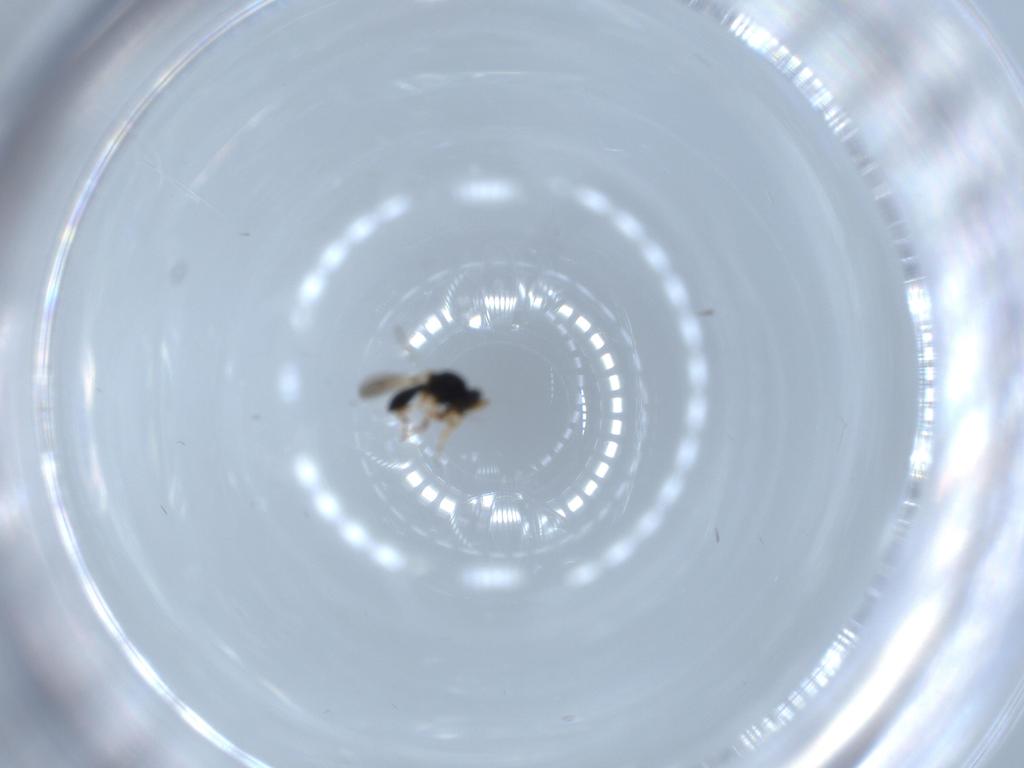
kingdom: Animalia
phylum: Arthropoda
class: Insecta
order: Hymenoptera
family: Platygastridae
